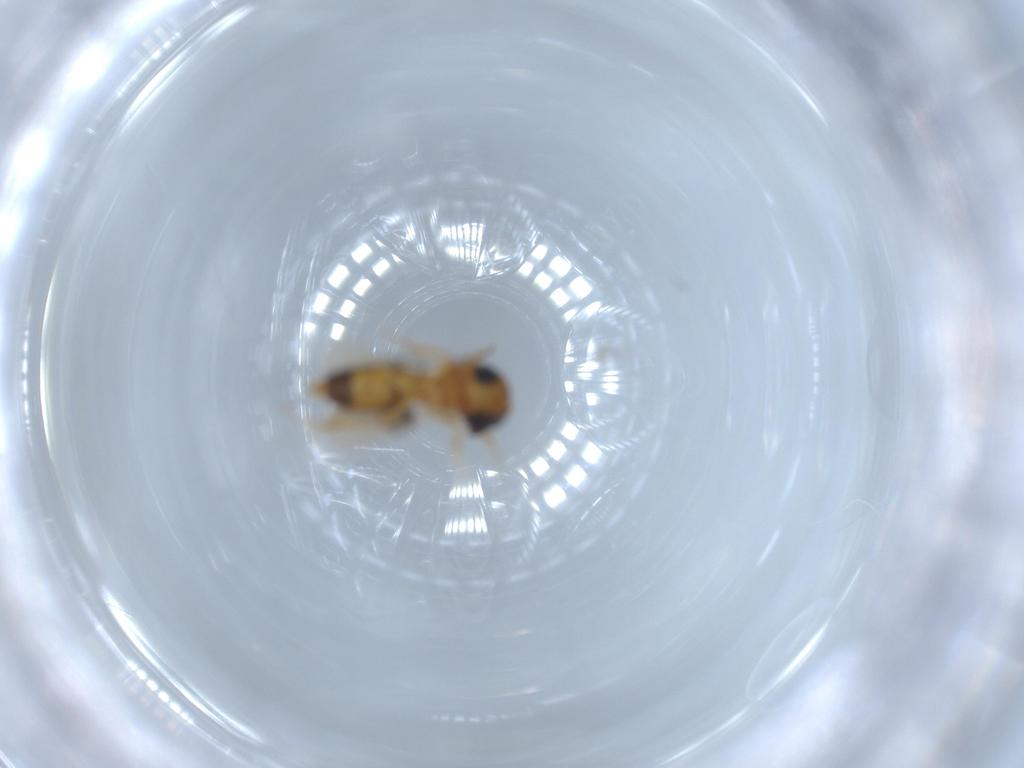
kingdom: Animalia
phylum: Arthropoda
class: Insecta
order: Hymenoptera
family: Scelionidae
